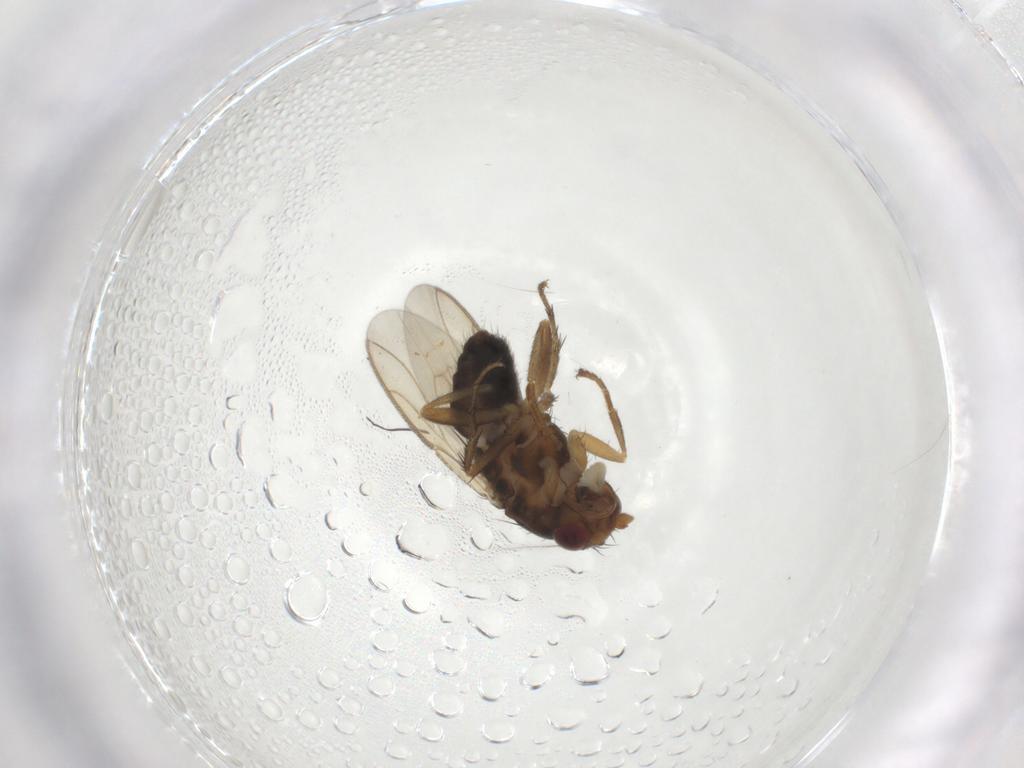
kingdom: Animalia
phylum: Arthropoda
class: Insecta
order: Diptera
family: Sphaeroceridae
